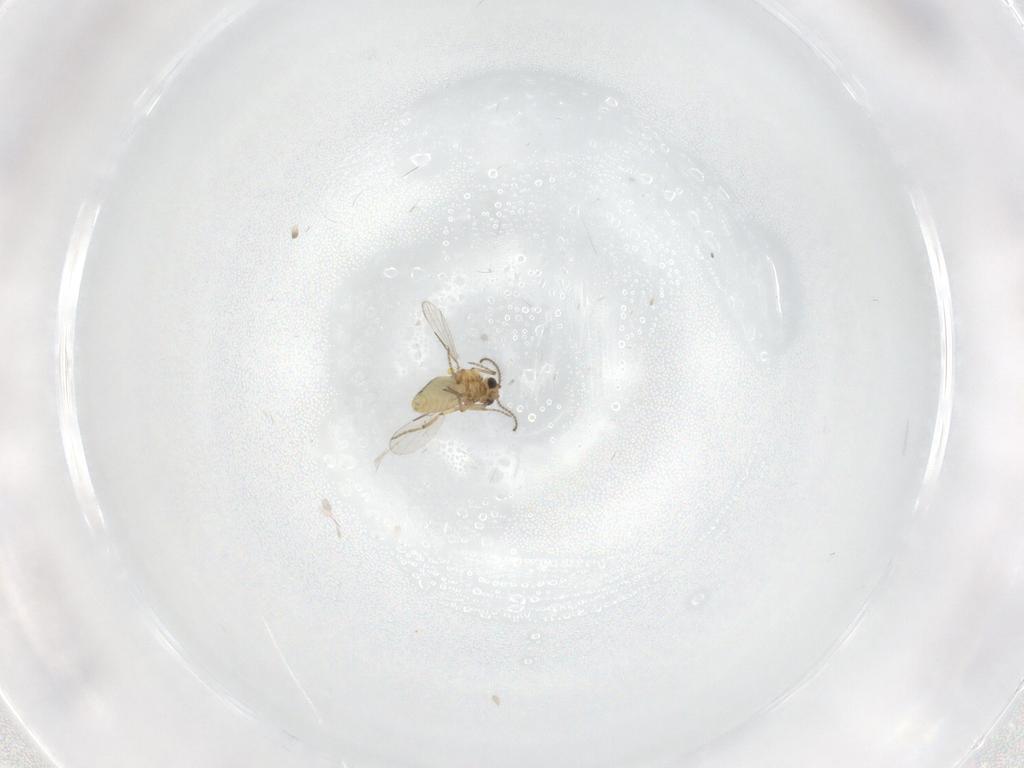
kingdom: Animalia
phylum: Arthropoda
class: Insecta
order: Diptera
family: Ceratopogonidae
